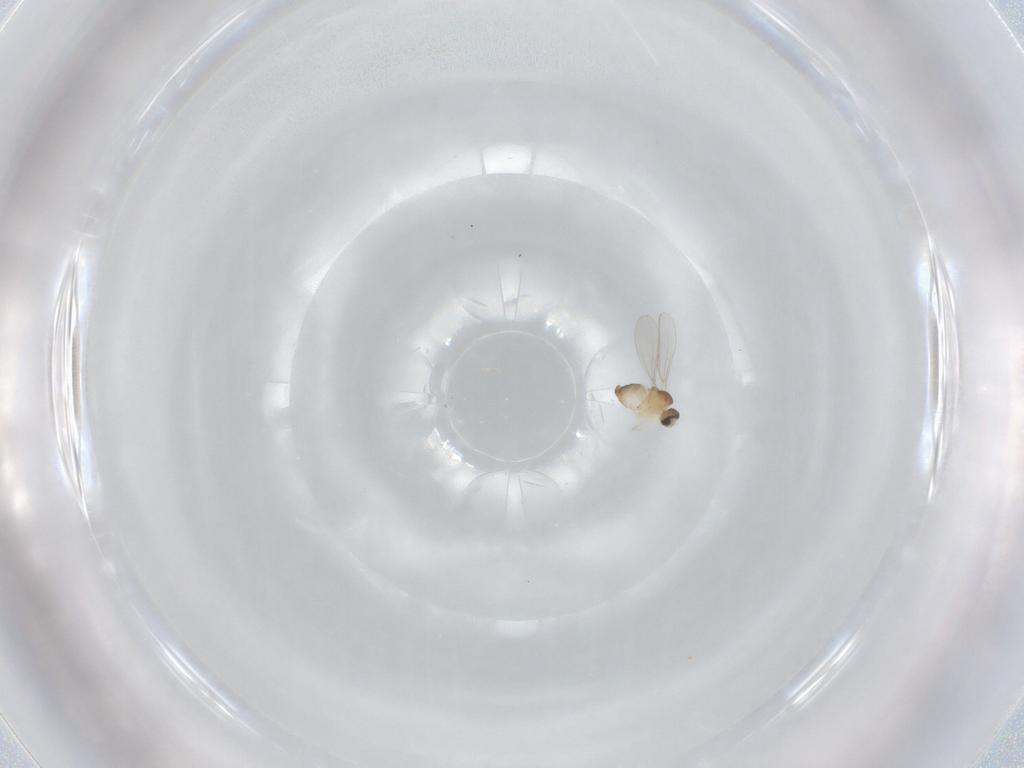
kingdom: Animalia
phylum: Arthropoda
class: Insecta
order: Diptera
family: Cecidomyiidae
